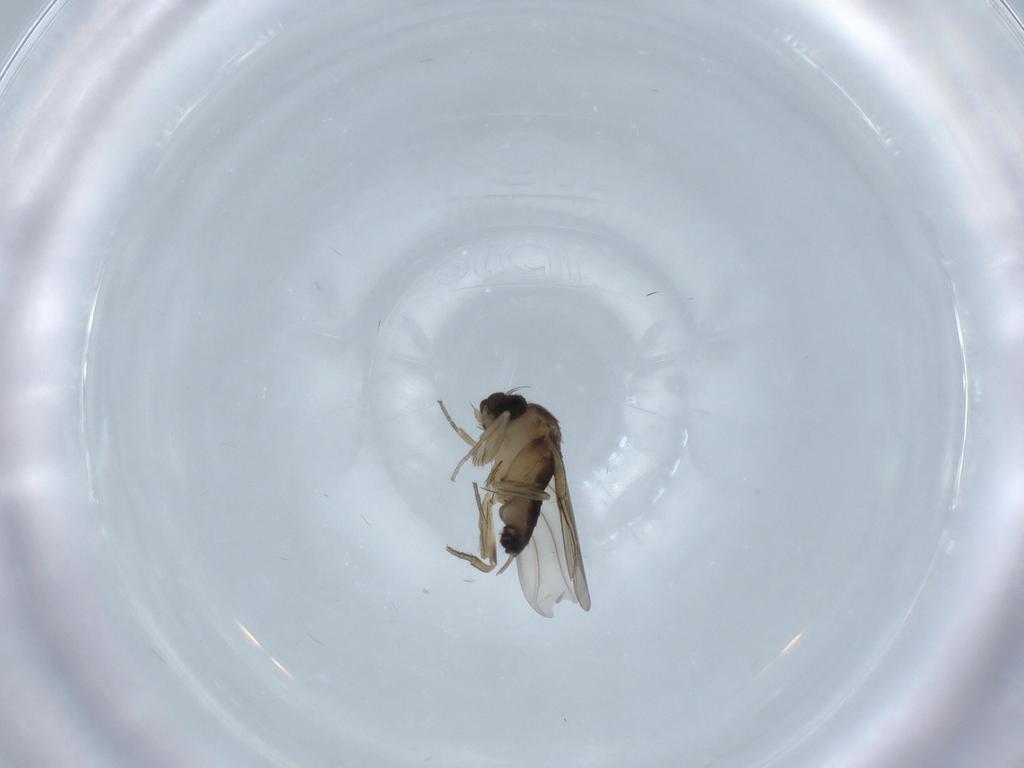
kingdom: Animalia
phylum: Arthropoda
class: Insecta
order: Diptera
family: Phoridae
